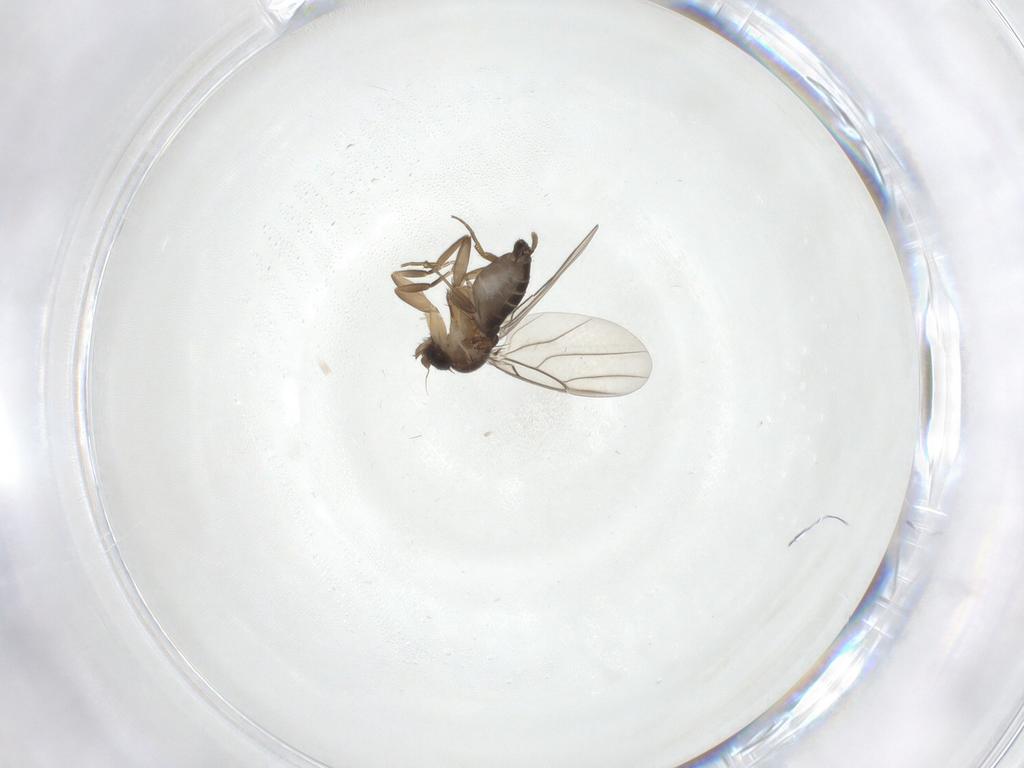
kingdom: Animalia
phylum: Arthropoda
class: Insecta
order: Diptera
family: Phoridae
